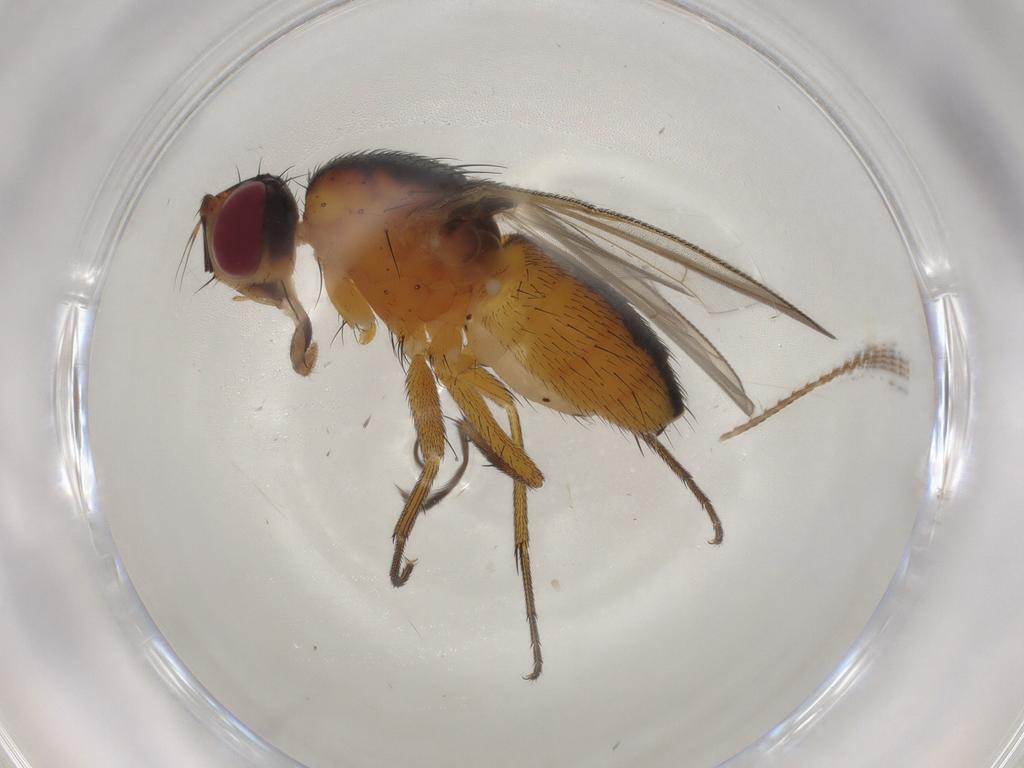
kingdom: Animalia
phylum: Arthropoda
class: Insecta
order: Diptera
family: Muscidae
